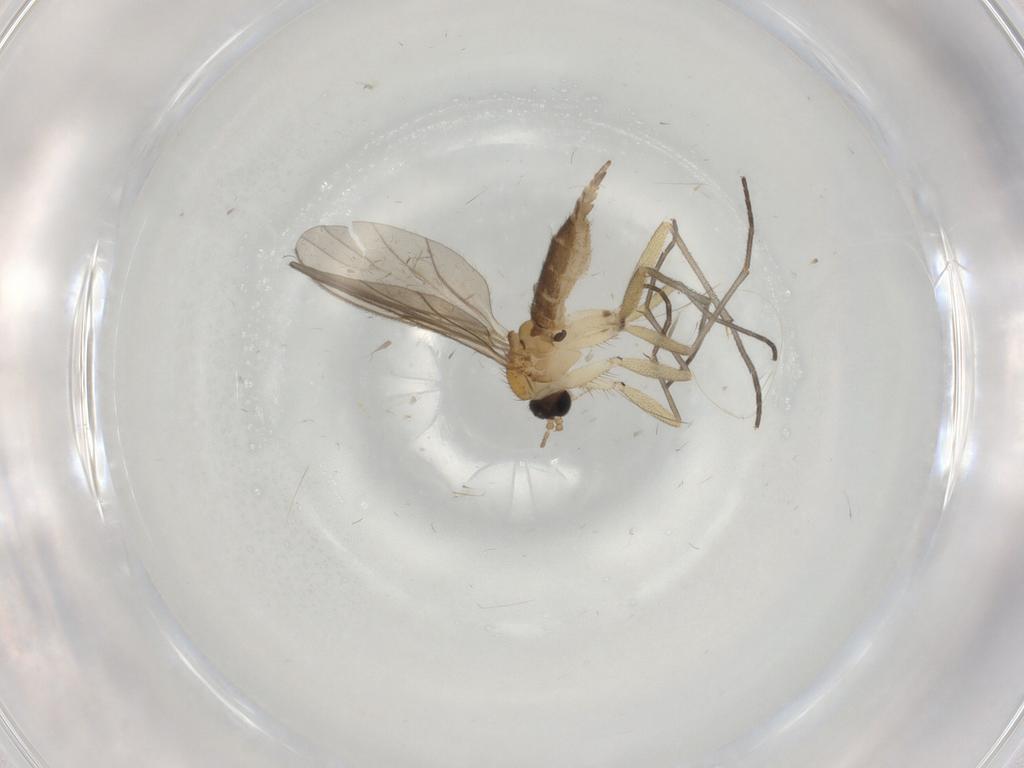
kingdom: Animalia
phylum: Arthropoda
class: Insecta
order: Diptera
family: Sciaridae
